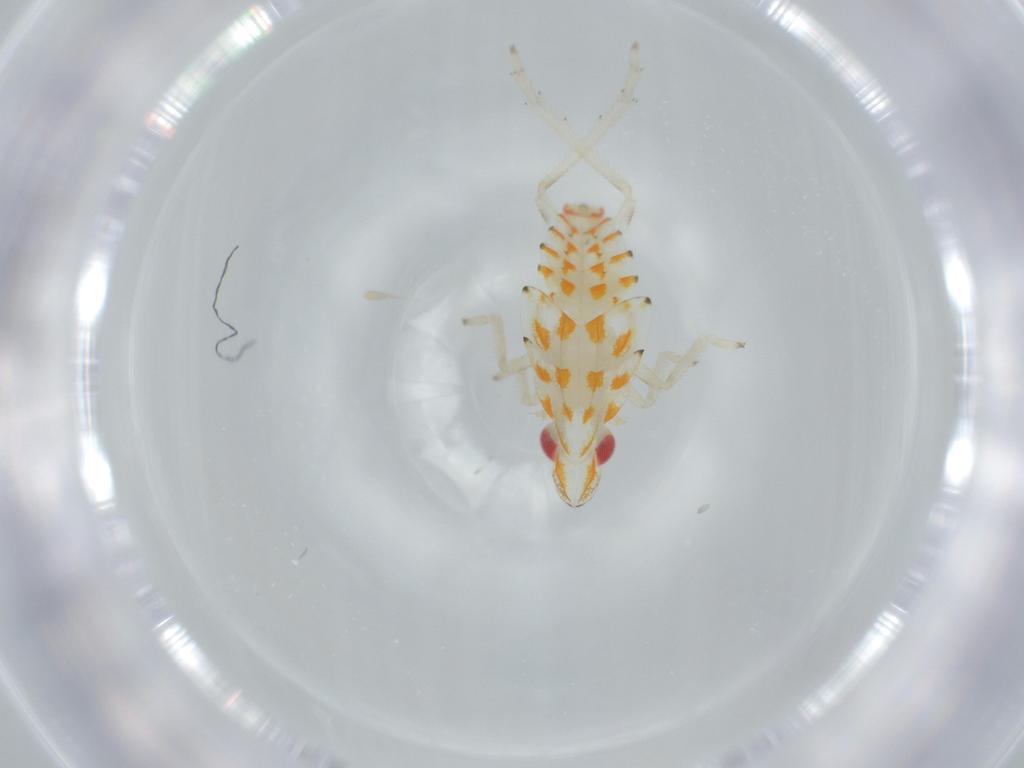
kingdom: Animalia
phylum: Arthropoda
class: Insecta
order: Hemiptera
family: Tropiduchidae
